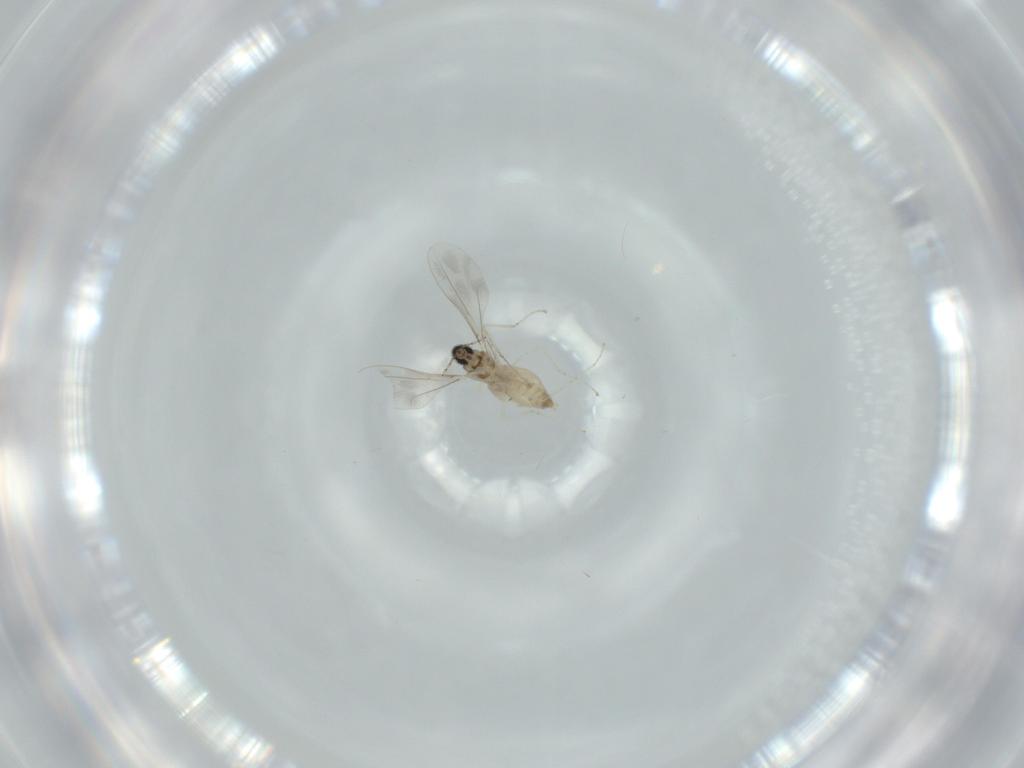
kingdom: Animalia
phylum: Arthropoda
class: Insecta
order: Diptera
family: Cecidomyiidae
